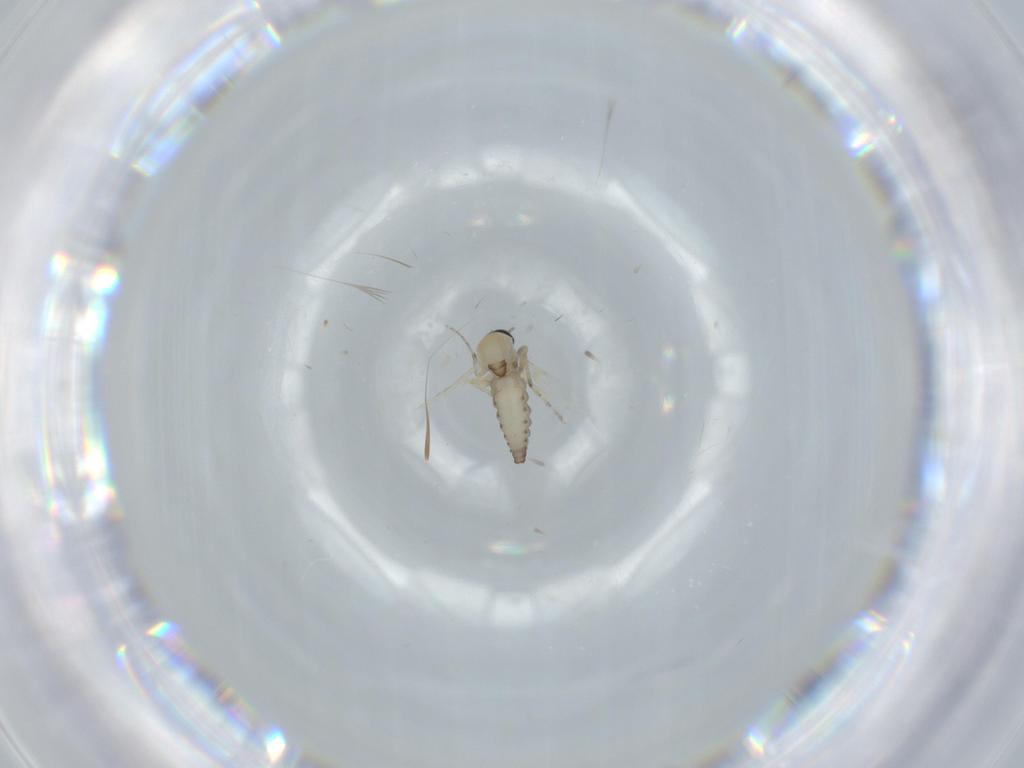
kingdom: Animalia
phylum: Arthropoda
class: Insecta
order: Diptera
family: Ceratopogonidae
